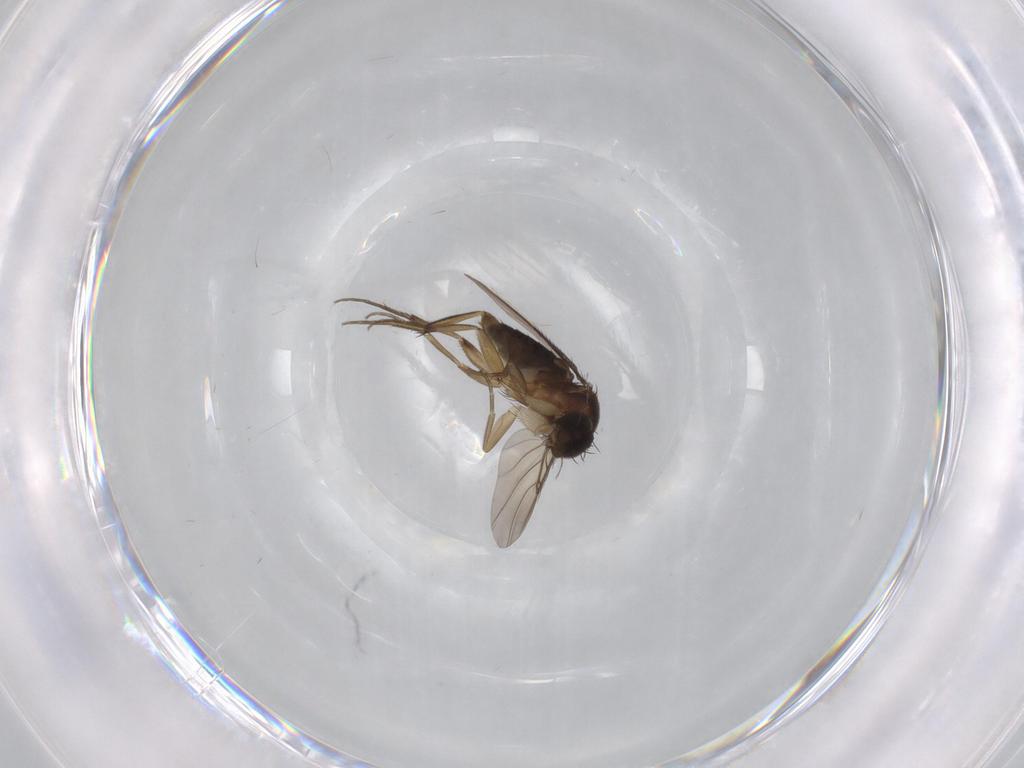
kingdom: Animalia
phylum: Arthropoda
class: Insecta
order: Diptera
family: Phoridae
